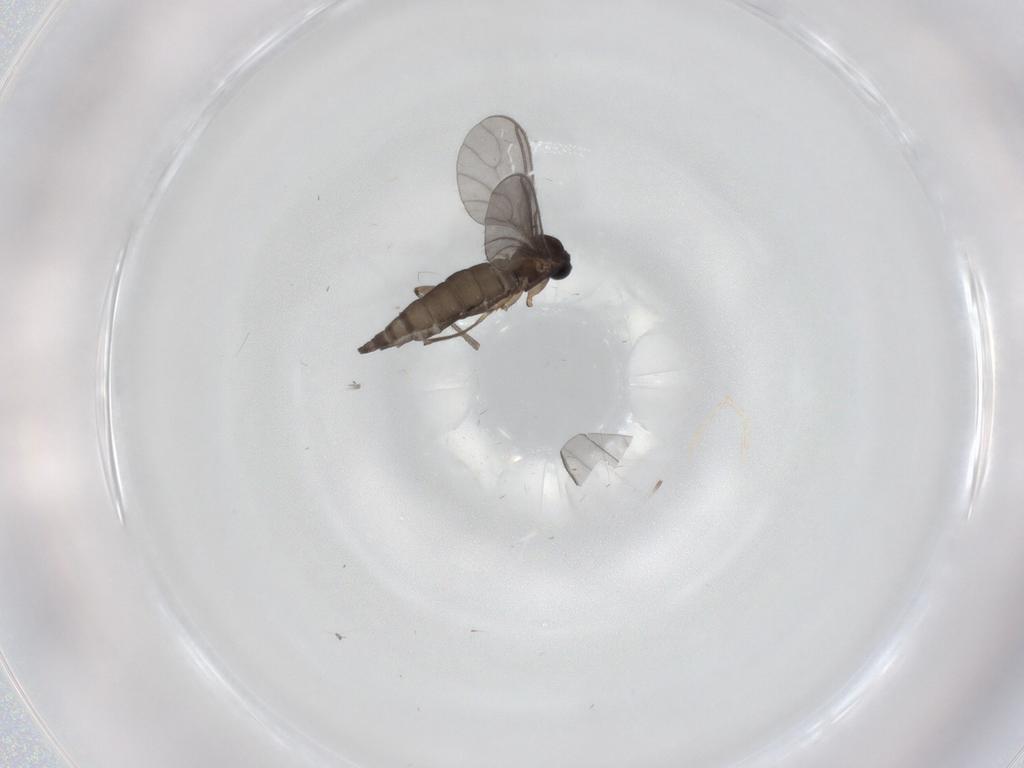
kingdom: Animalia
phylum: Arthropoda
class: Insecta
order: Diptera
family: Sciaridae
